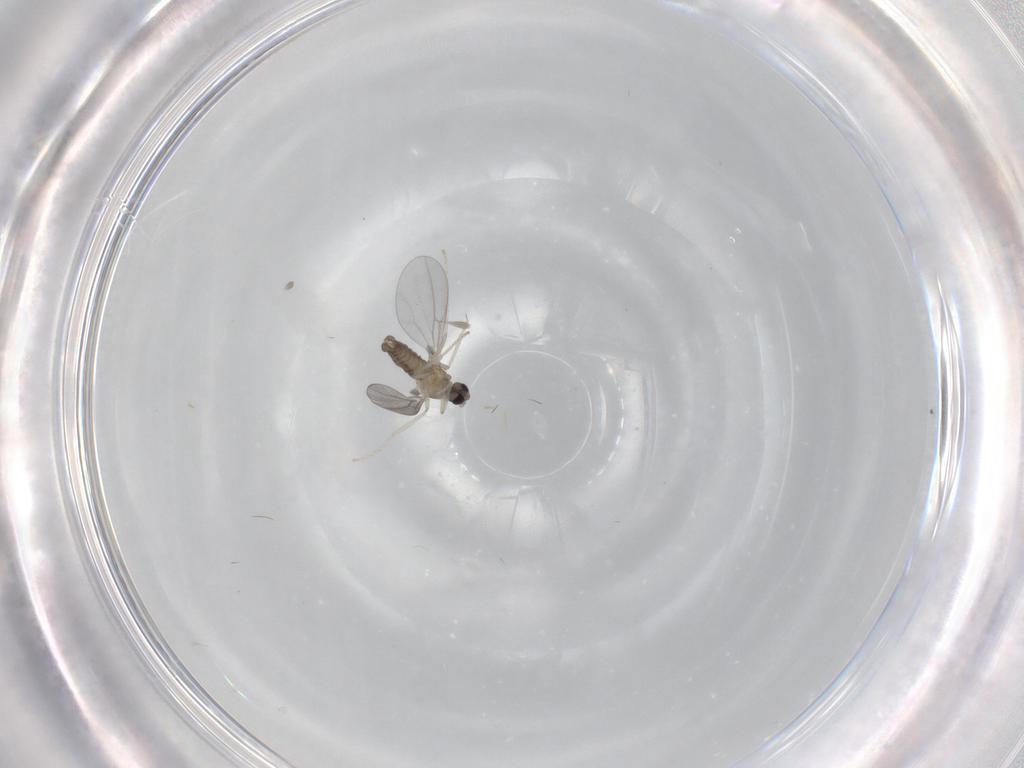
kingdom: Animalia
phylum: Arthropoda
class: Insecta
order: Diptera
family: Cecidomyiidae
